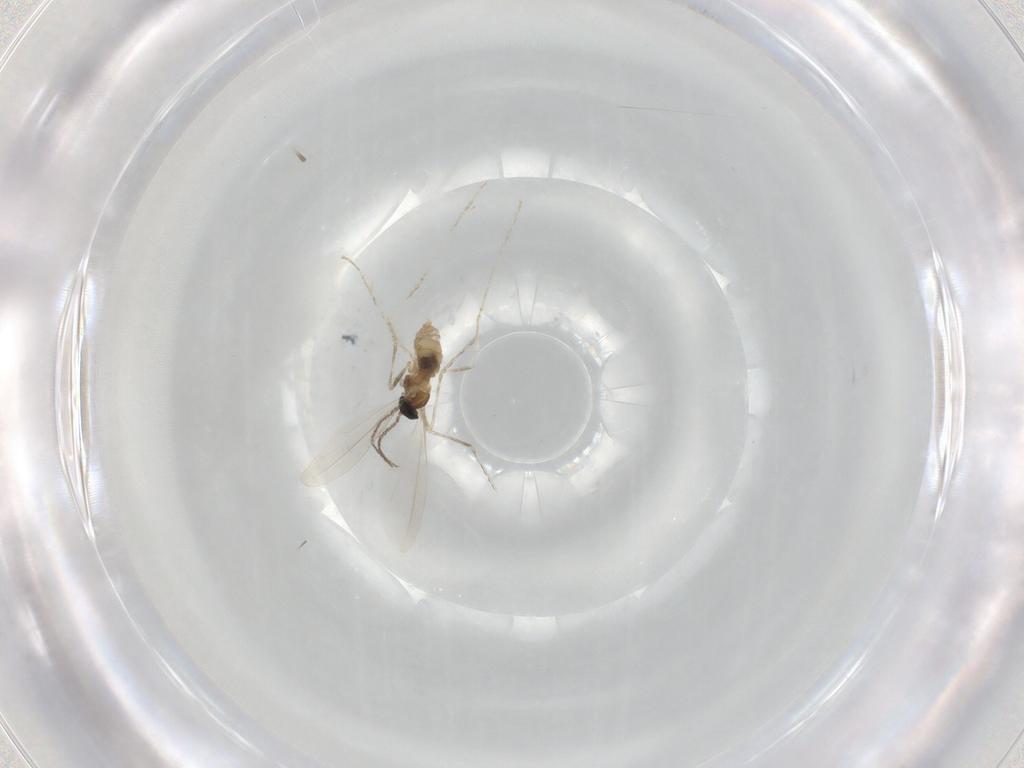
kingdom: Animalia
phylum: Arthropoda
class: Insecta
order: Diptera
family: Cecidomyiidae
